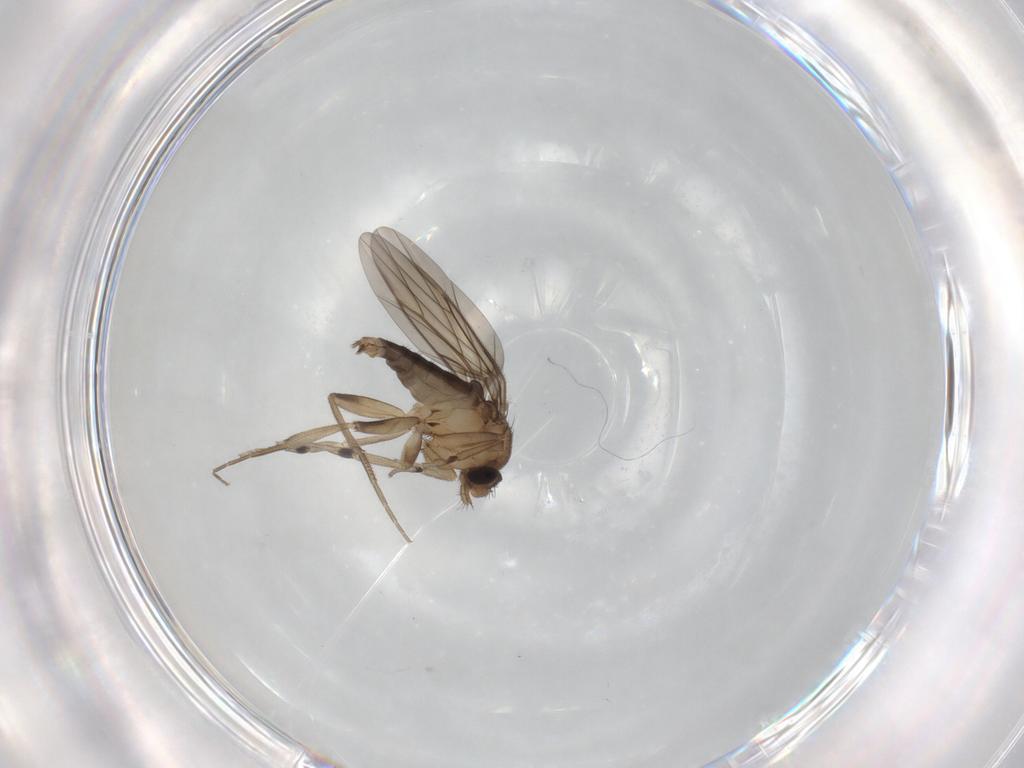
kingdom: Animalia
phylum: Arthropoda
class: Insecta
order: Diptera
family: Phoridae
